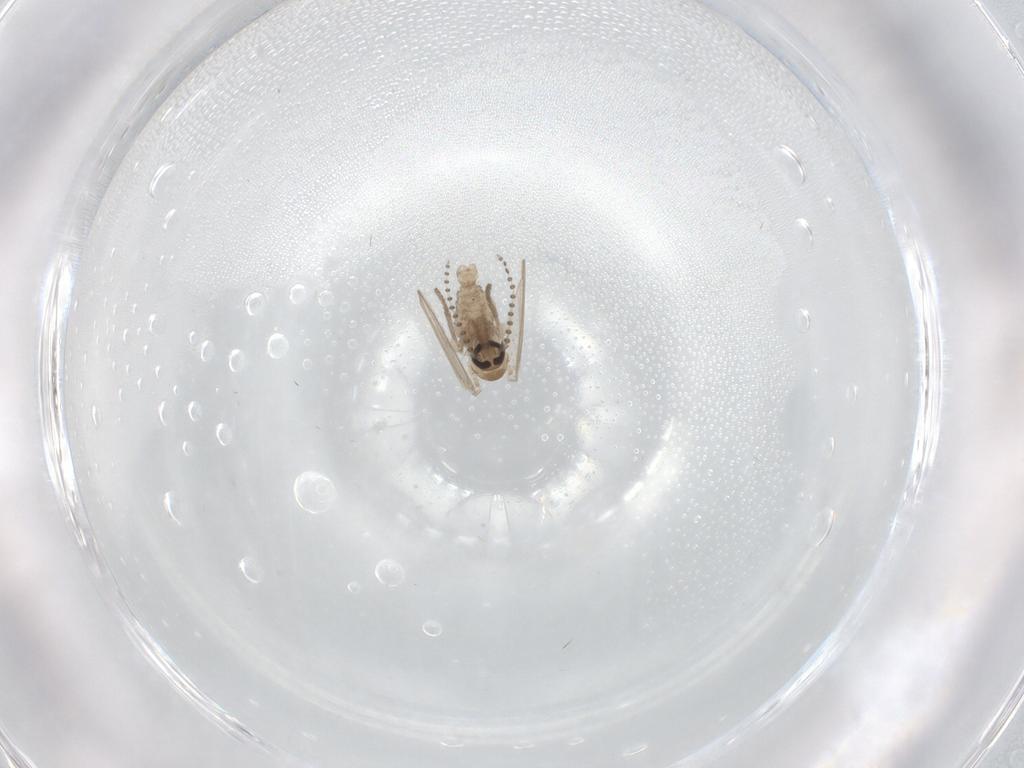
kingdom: Animalia
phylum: Arthropoda
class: Insecta
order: Diptera
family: Psychodidae
